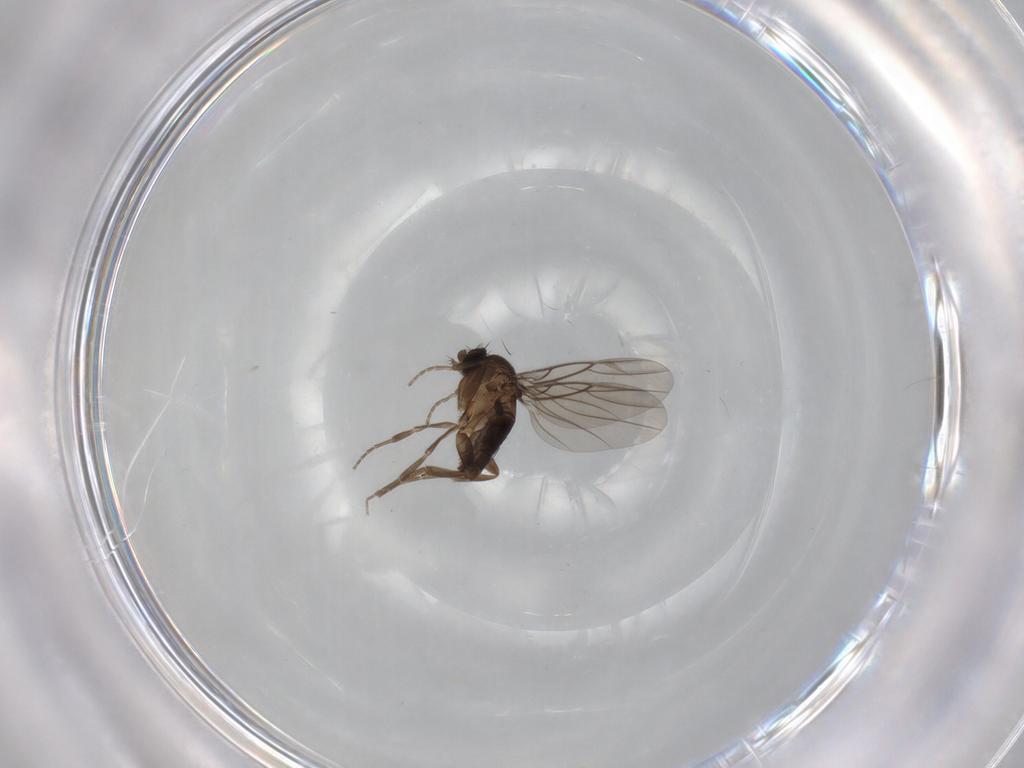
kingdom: Animalia
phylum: Arthropoda
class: Insecta
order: Diptera
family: Phoridae
